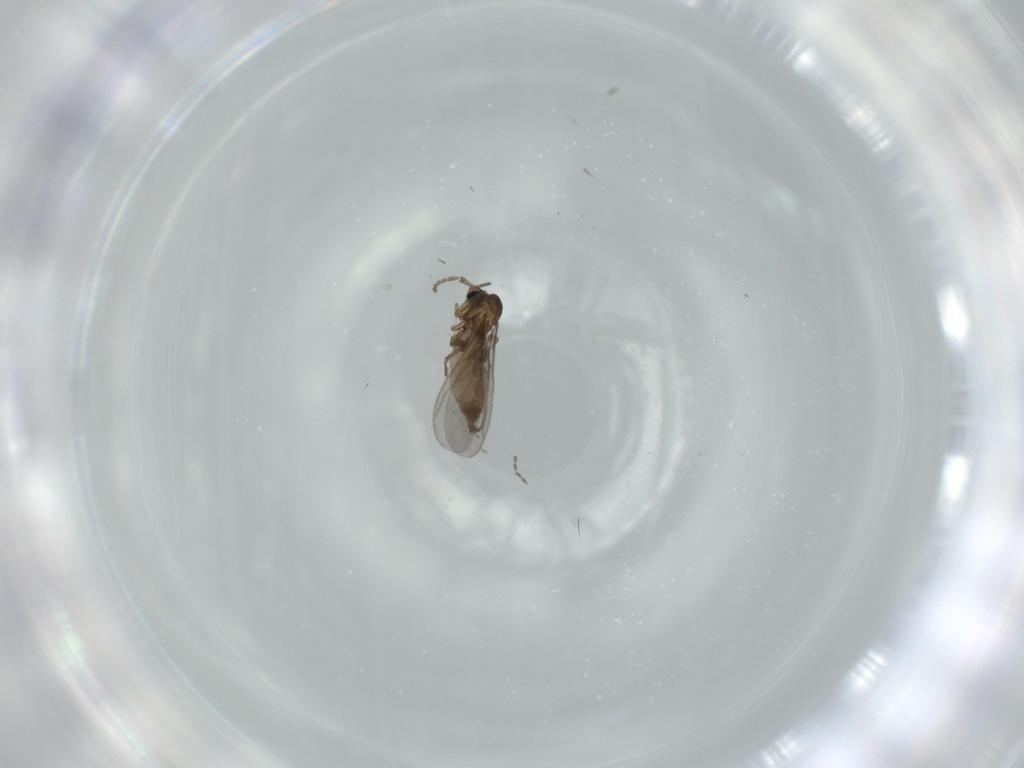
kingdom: Animalia
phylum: Arthropoda
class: Insecta
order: Diptera
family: Sciaridae
